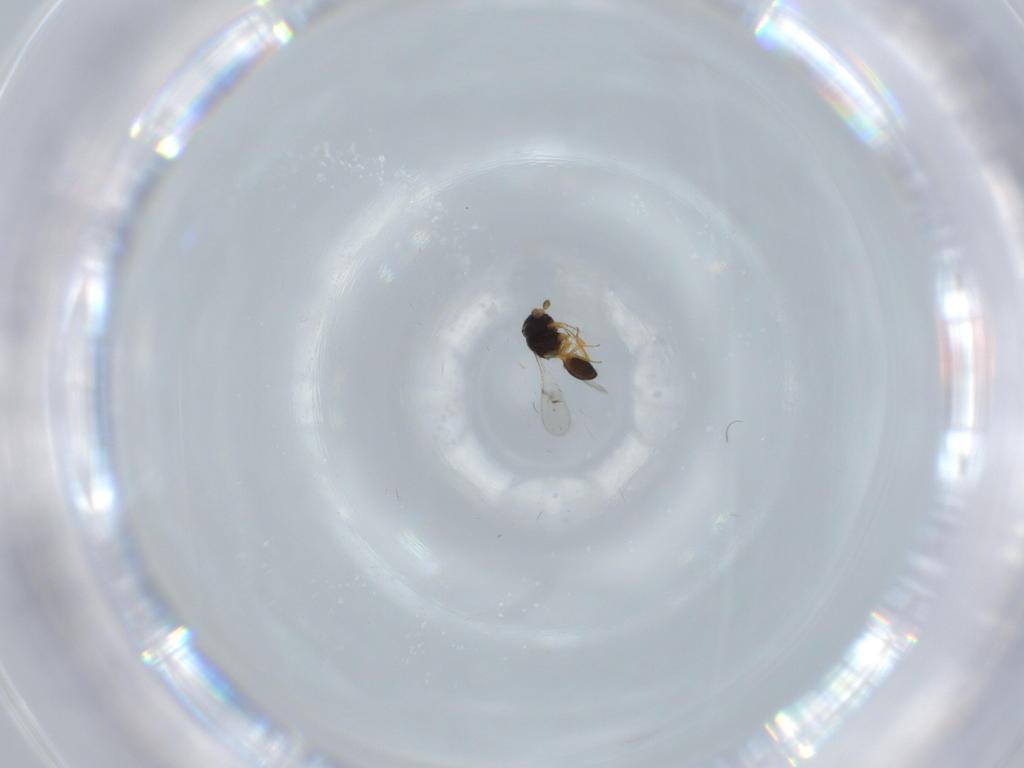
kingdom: Animalia
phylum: Arthropoda
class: Insecta
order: Hymenoptera
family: Scelionidae
